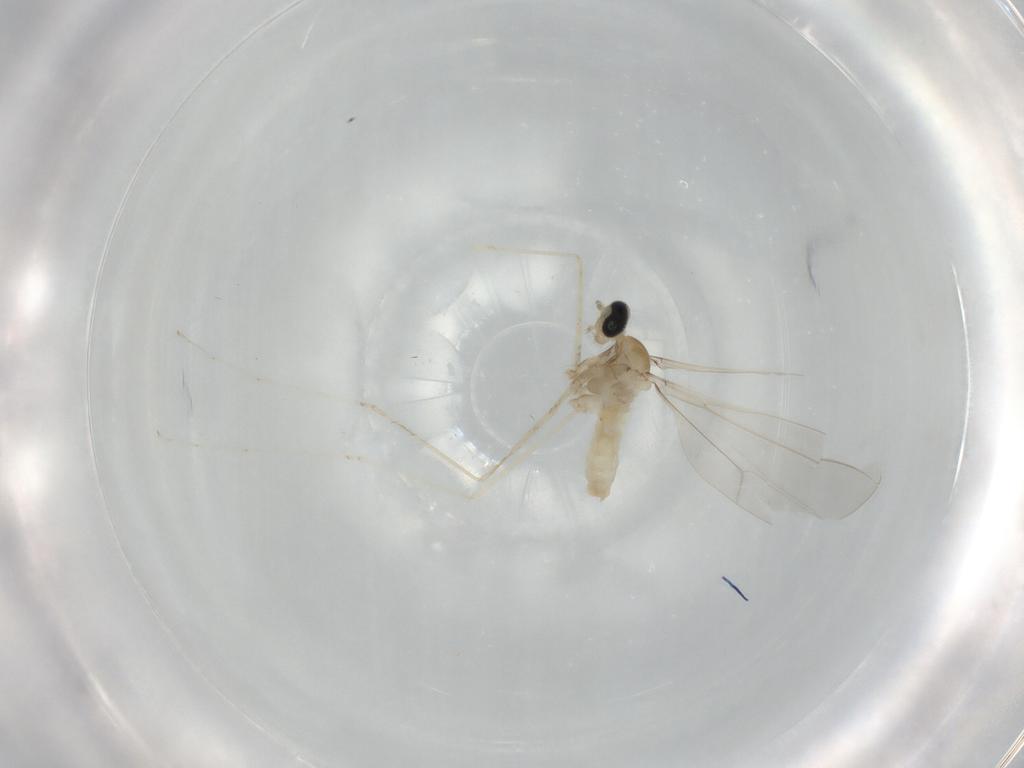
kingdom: Animalia
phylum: Arthropoda
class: Insecta
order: Diptera
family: Cecidomyiidae
